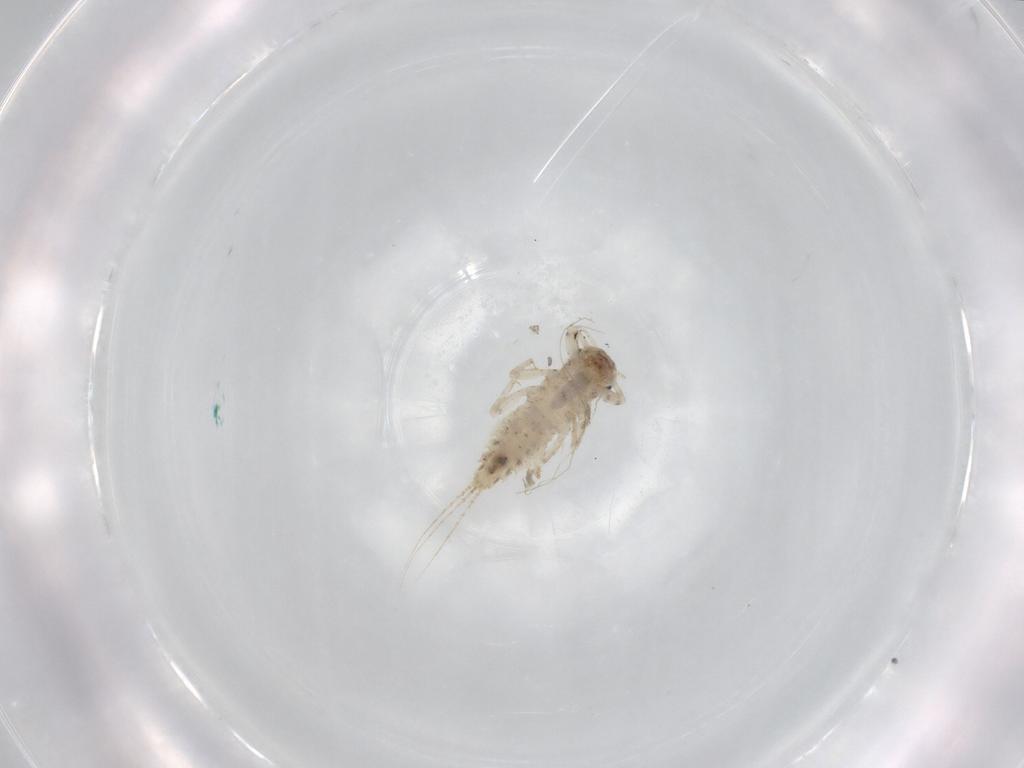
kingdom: Animalia
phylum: Arthropoda
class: Insecta
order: Ephemeroptera
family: Caenidae
